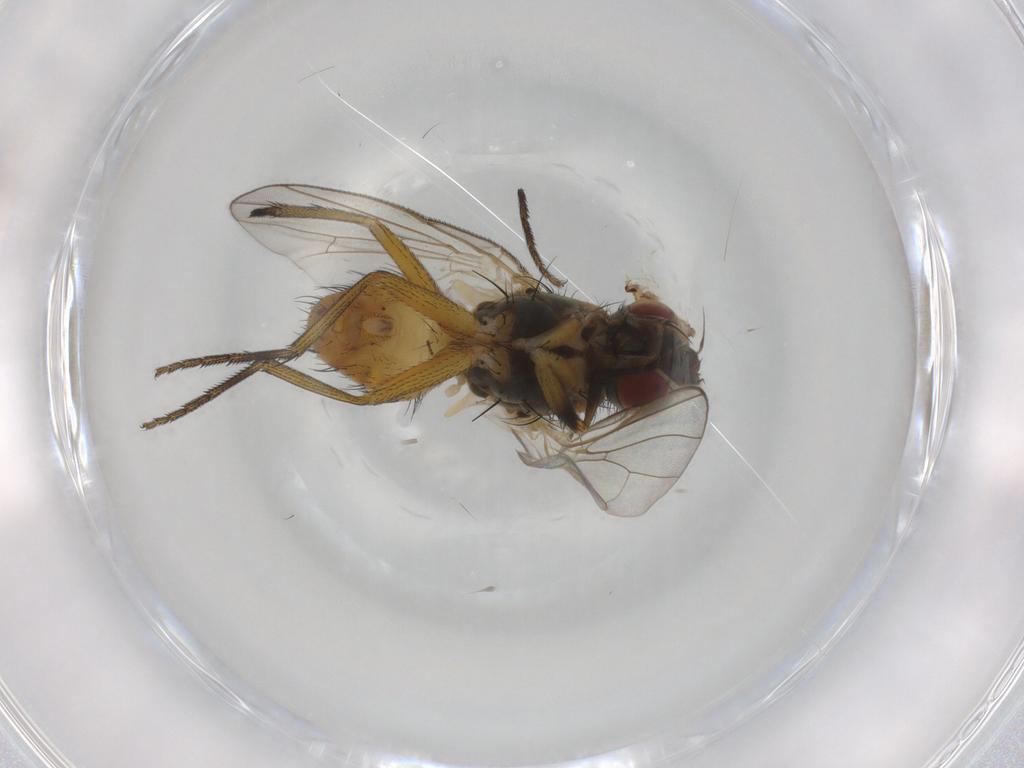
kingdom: Animalia
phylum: Arthropoda
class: Insecta
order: Diptera
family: Muscidae
